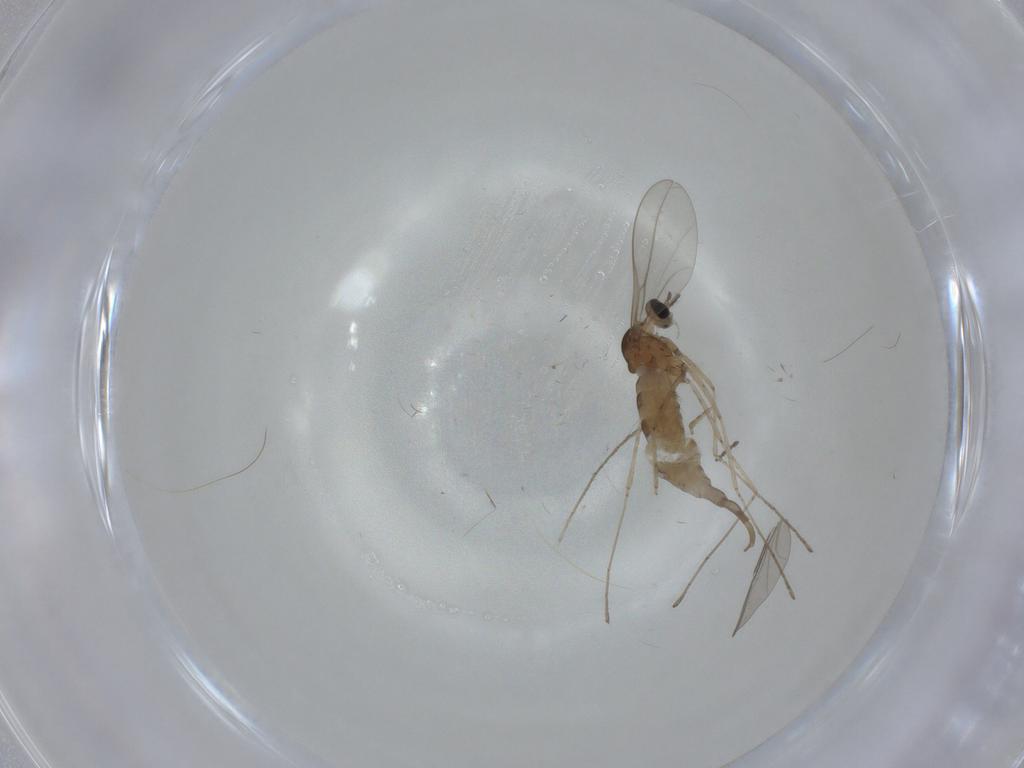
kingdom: Animalia
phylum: Arthropoda
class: Insecta
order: Diptera
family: Cecidomyiidae
